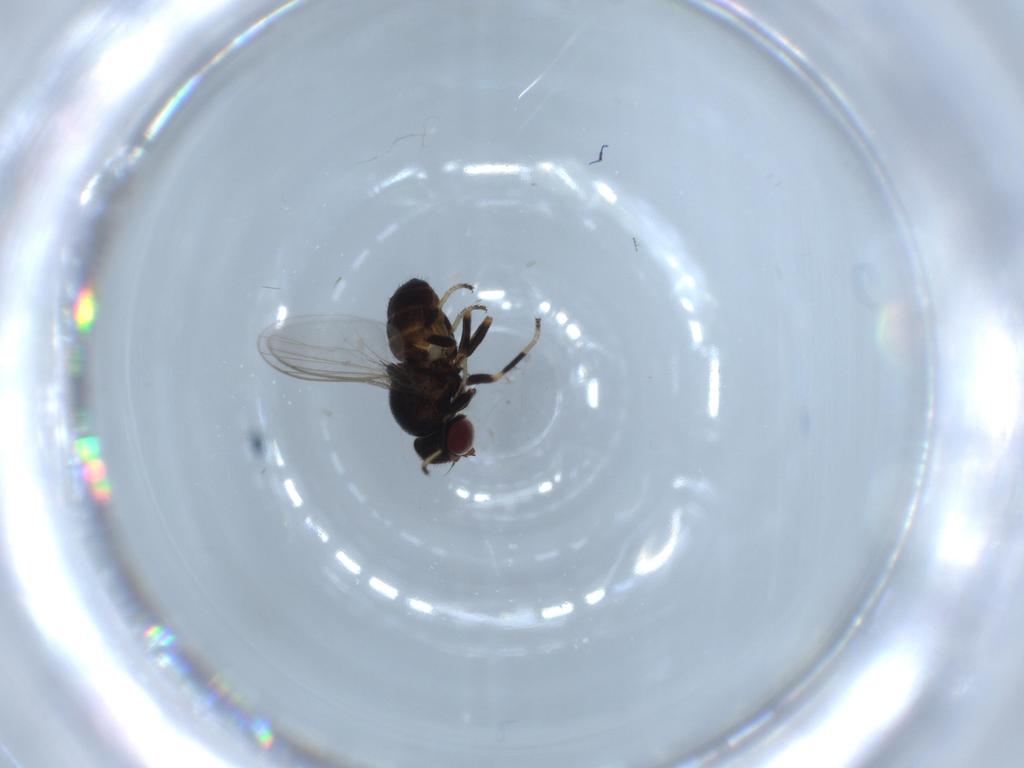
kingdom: Animalia
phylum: Arthropoda
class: Insecta
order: Diptera
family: Chloropidae
